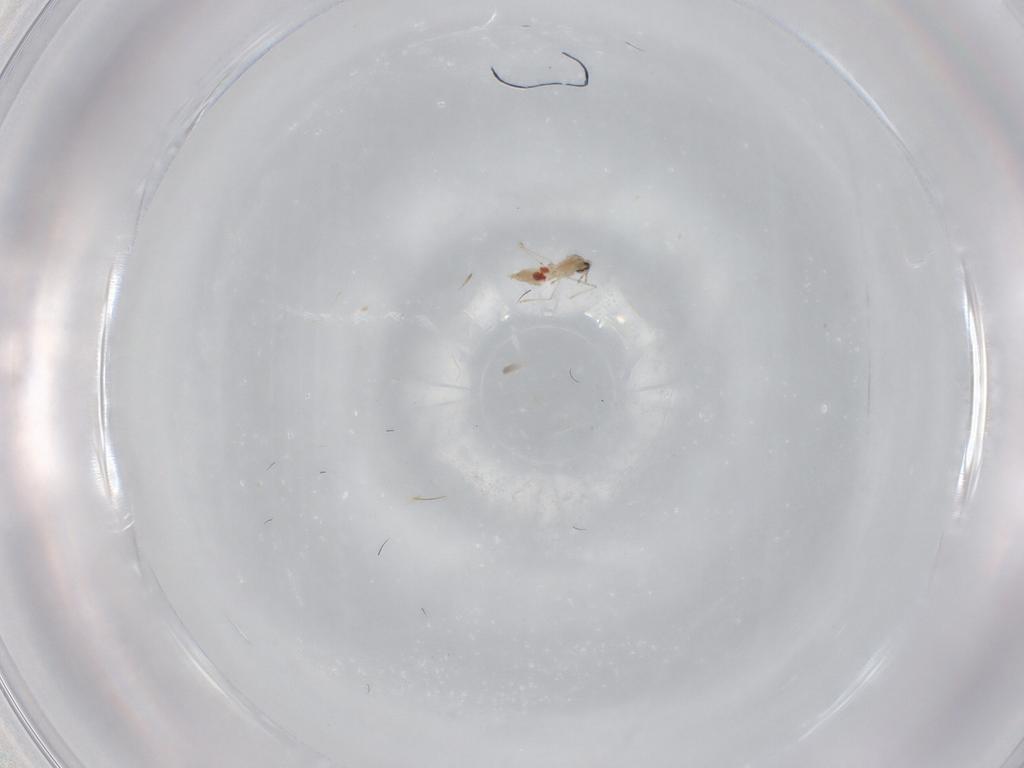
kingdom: Animalia
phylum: Arthropoda
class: Insecta
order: Diptera
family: Cecidomyiidae
